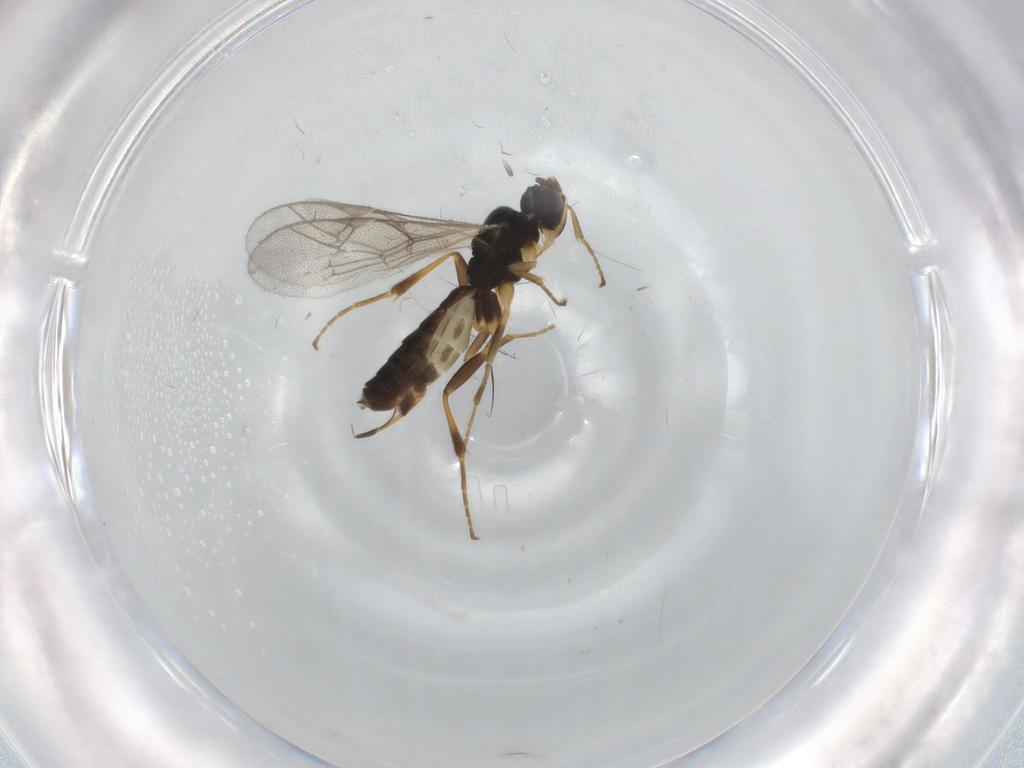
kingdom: Animalia
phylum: Arthropoda
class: Insecta
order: Hymenoptera
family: Ichneumonidae
